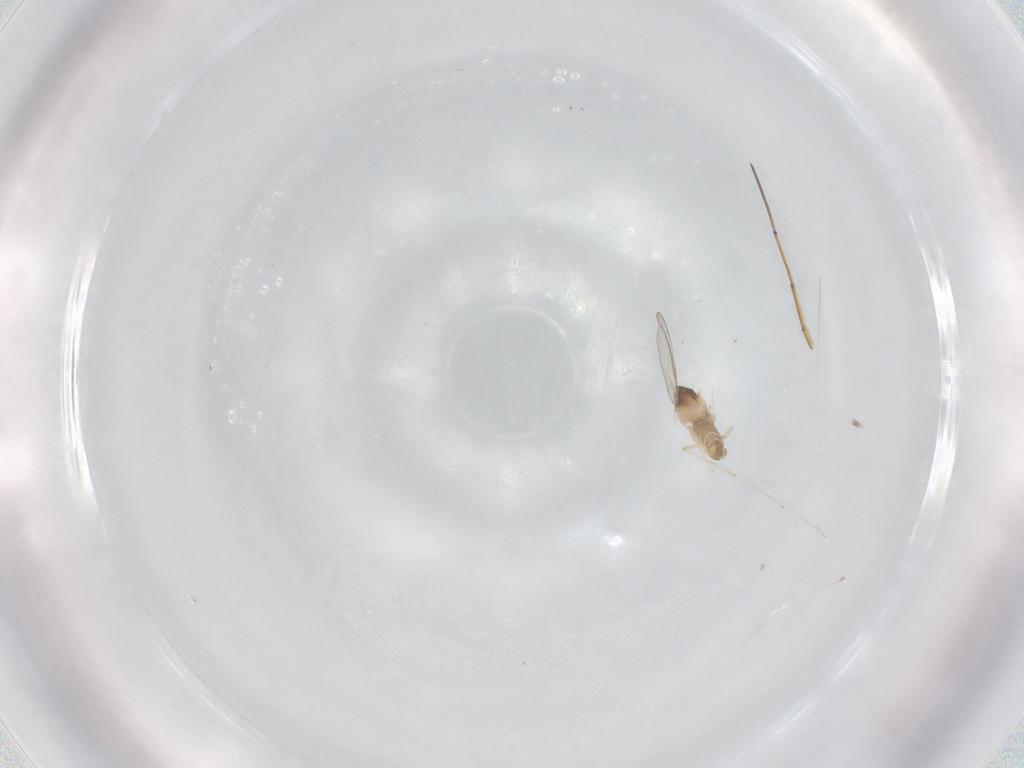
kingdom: Animalia
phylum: Arthropoda
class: Insecta
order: Diptera
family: Cecidomyiidae
